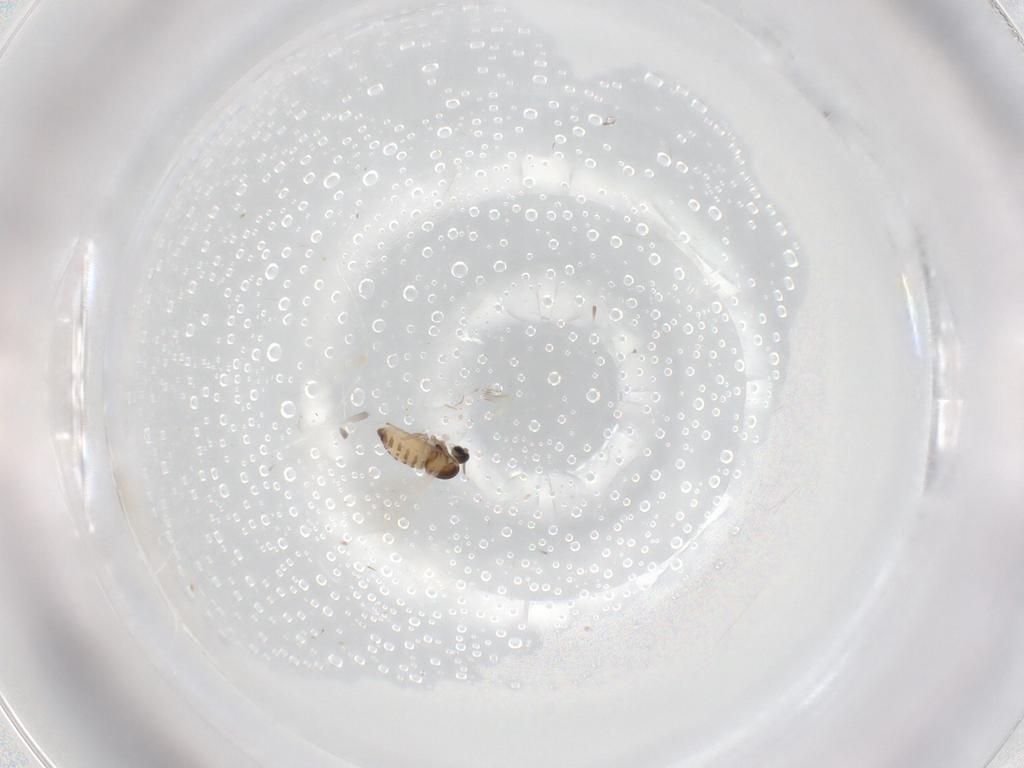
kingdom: Animalia
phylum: Arthropoda
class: Insecta
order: Diptera
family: Cecidomyiidae
